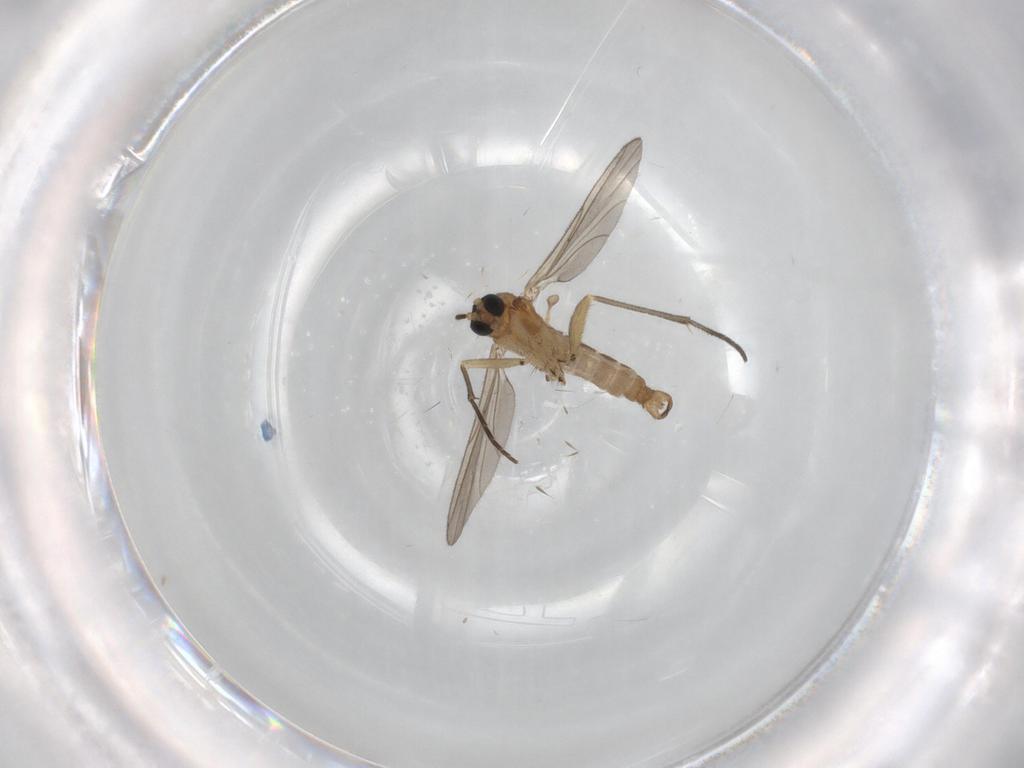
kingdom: Animalia
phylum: Arthropoda
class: Insecta
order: Diptera
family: Sciaridae
